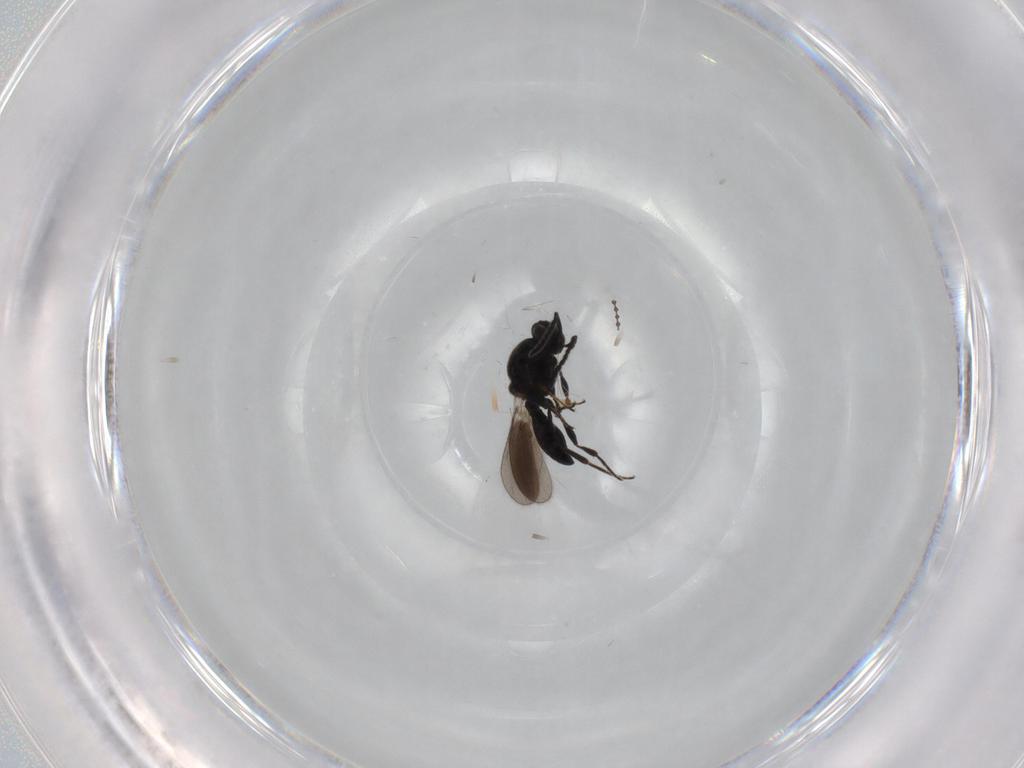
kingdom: Animalia
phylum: Arthropoda
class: Insecta
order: Hymenoptera
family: Platygastridae
